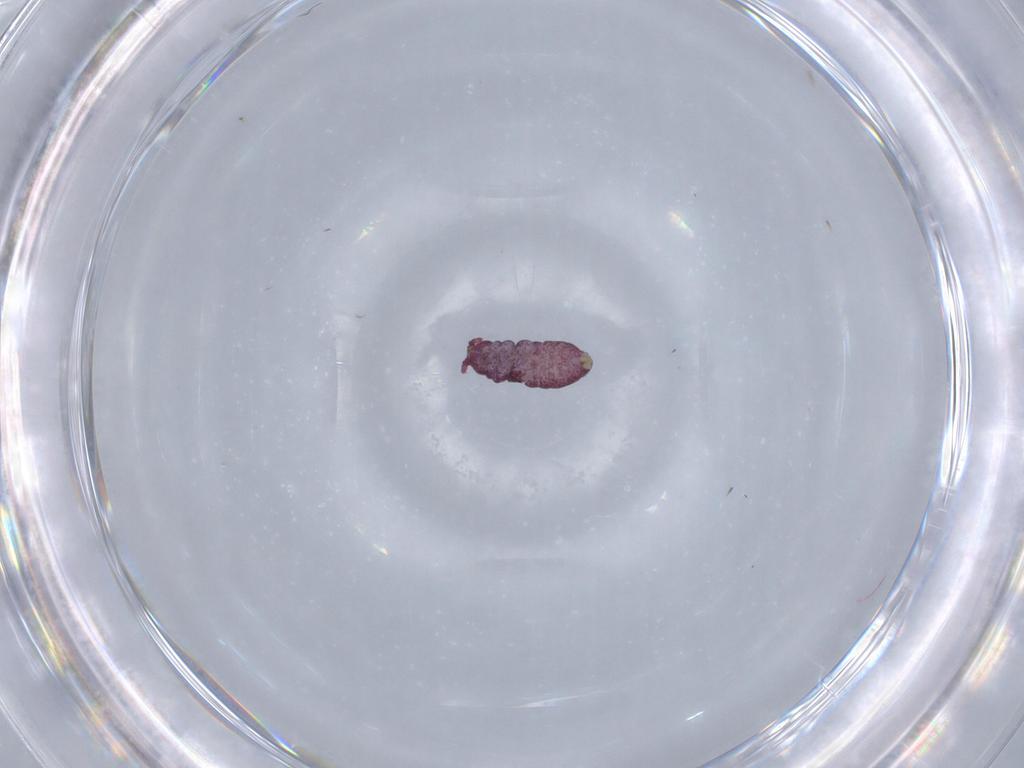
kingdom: Animalia
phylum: Arthropoda
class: Collembola
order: Poduromorpha
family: Brachystomellidae
